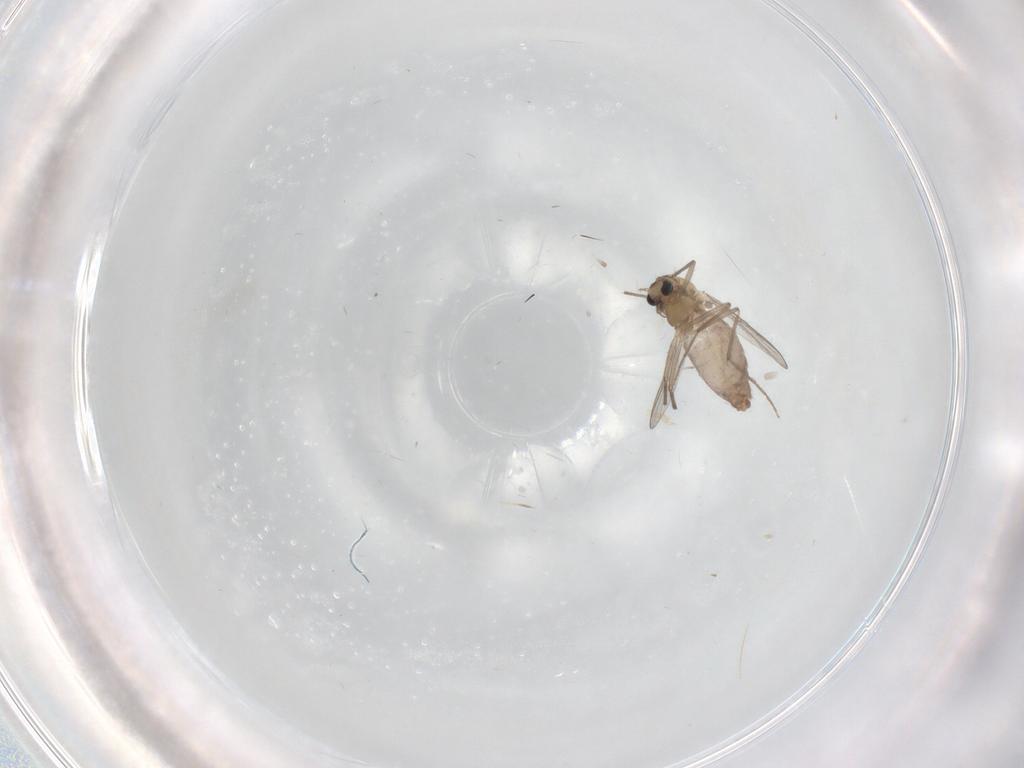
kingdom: Animalia
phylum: Arthropoda
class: Insecta
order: Diptera
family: Chironomidae
